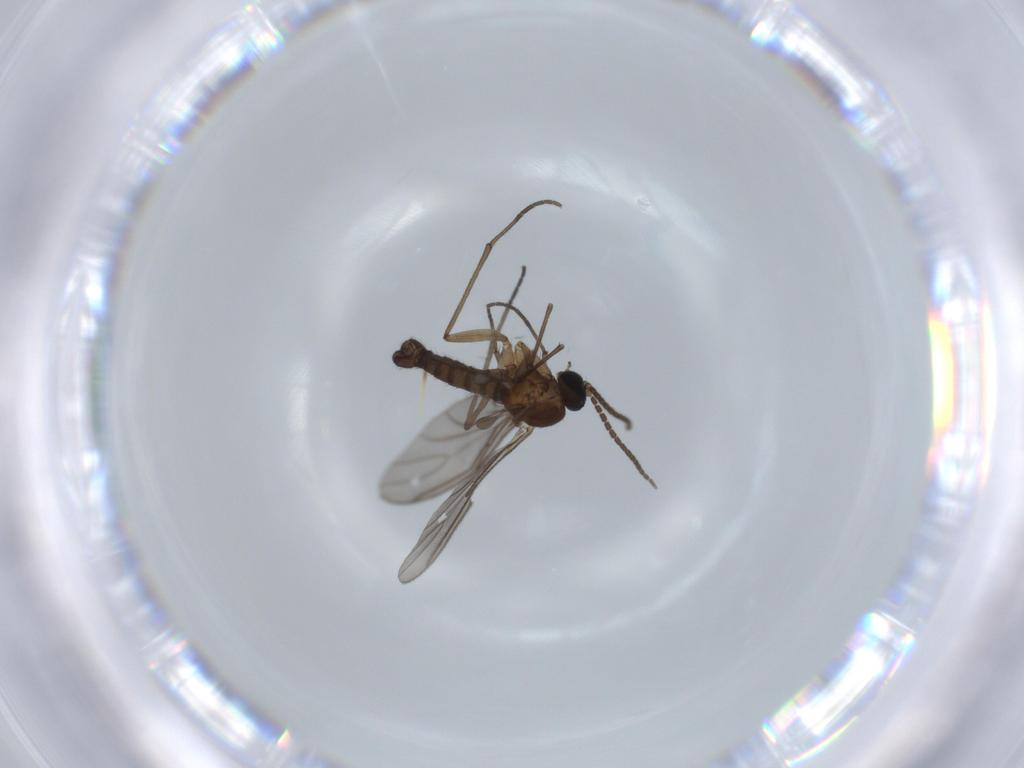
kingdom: Animalia
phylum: Arthropoda
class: Insecta
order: Diptera
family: Sciaridae
